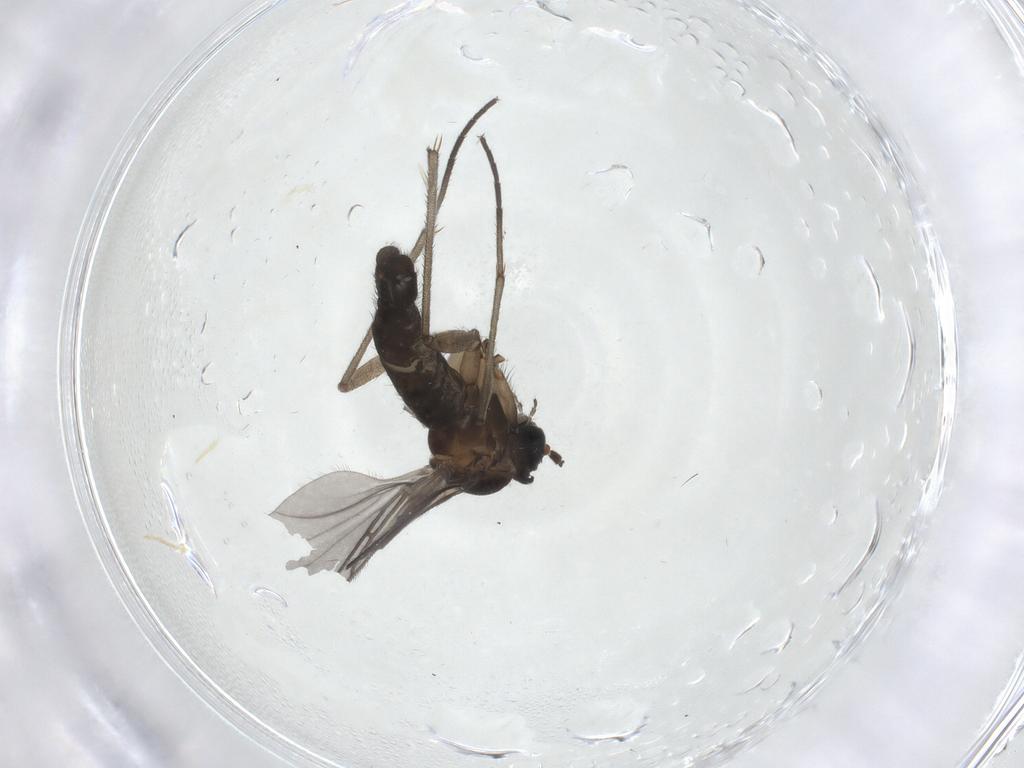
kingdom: Animalia
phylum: Arthropoda
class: Insecta
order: Diptera
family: Sciaridae
